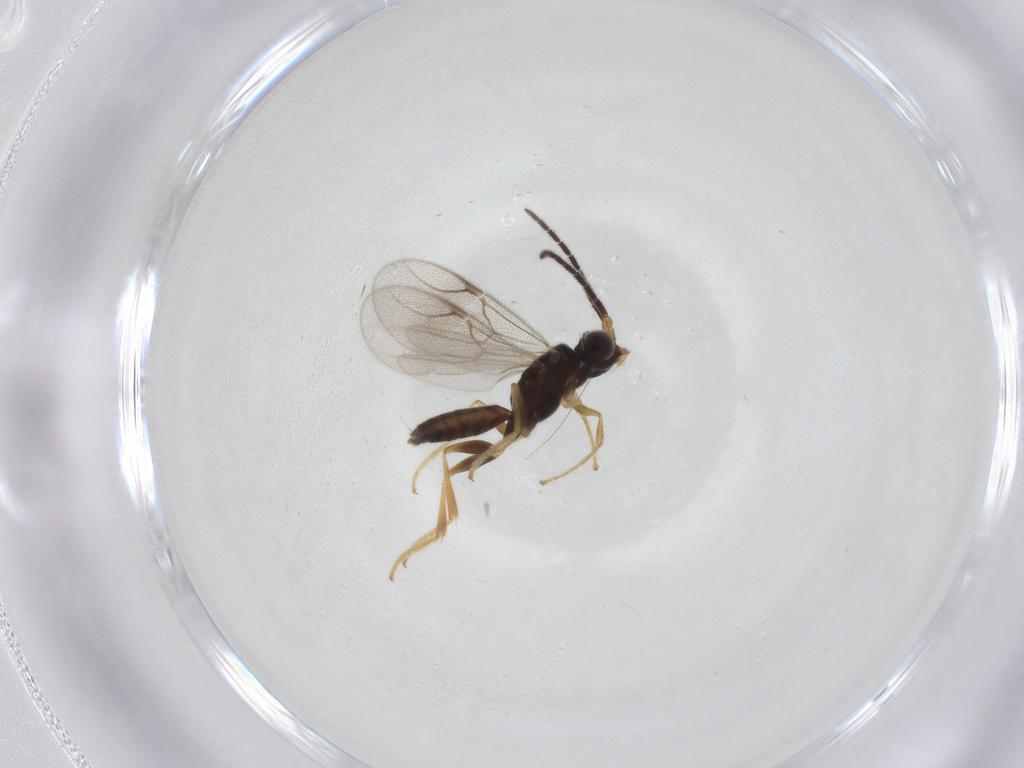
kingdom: Animalia
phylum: Arthropoda
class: Insecta
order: Hymenoptera
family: Dryinidae
